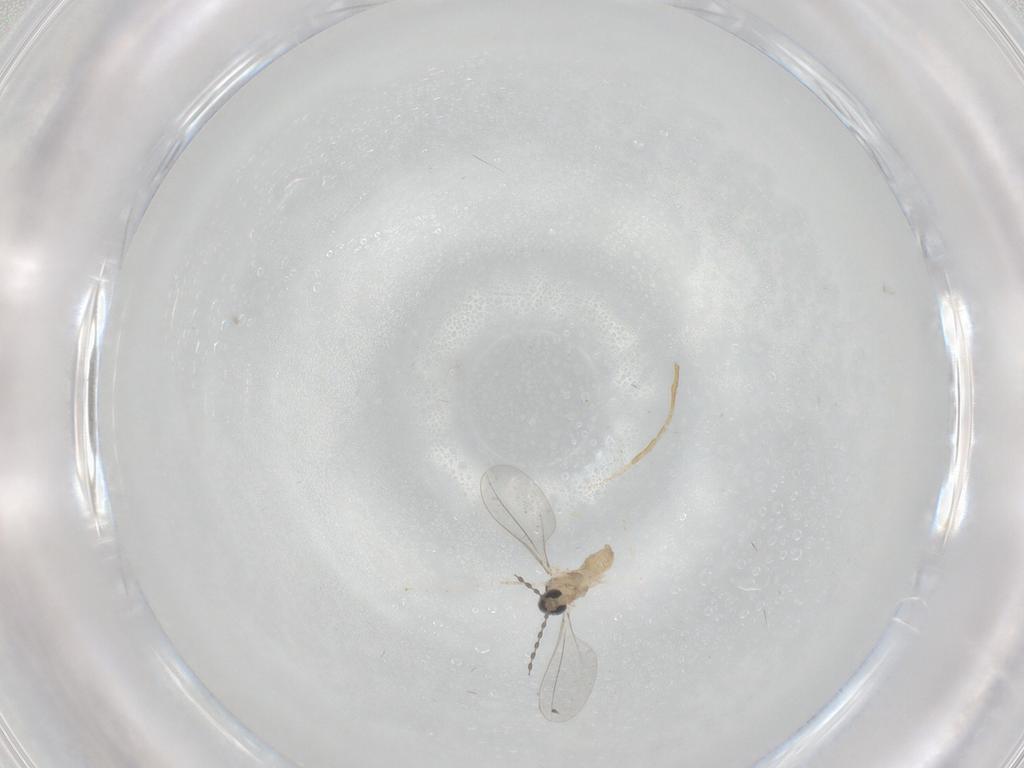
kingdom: Animalia
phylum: Arthropoda
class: Insecta
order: Diptera
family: Cecidomyiidae
